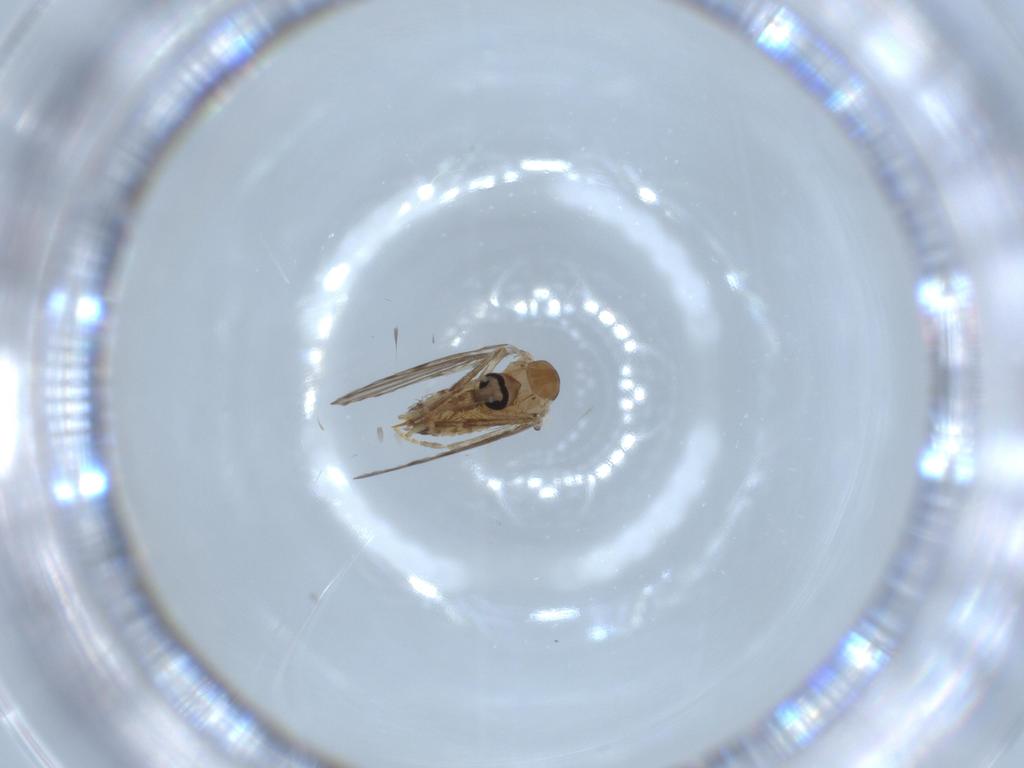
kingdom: Animalia
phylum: Arthropoda
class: Insecta
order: Diptera
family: Psychodidae
